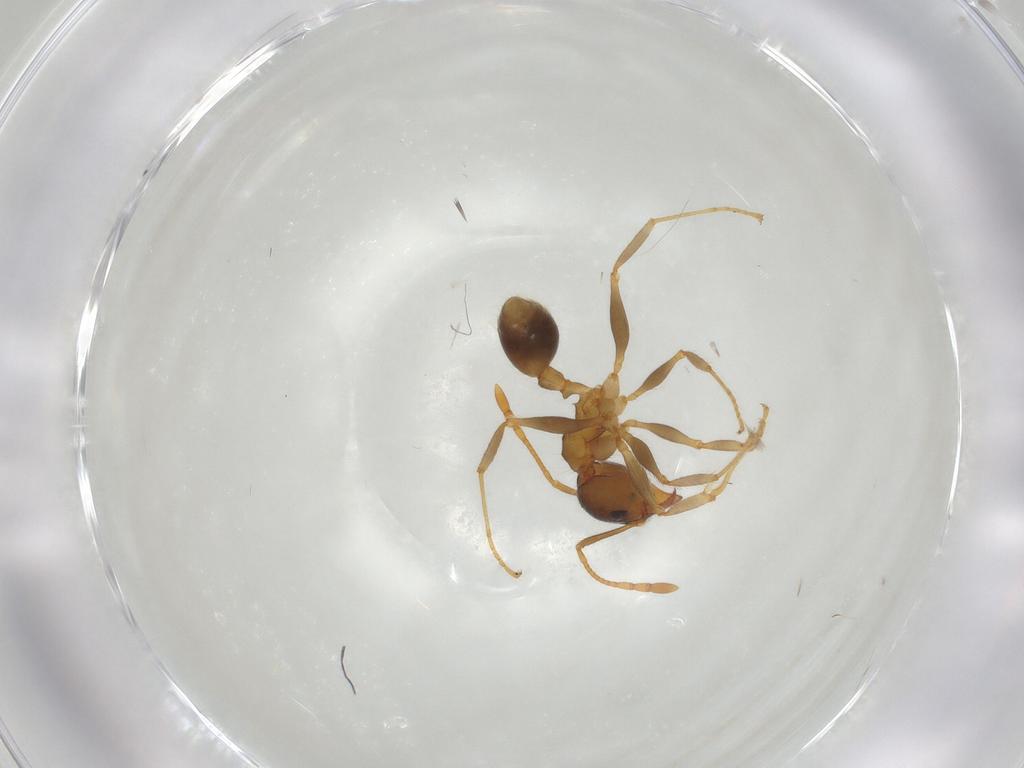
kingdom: Animalia
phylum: Arthropoda
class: Insecta
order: Hymenoptera
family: Formicidae
